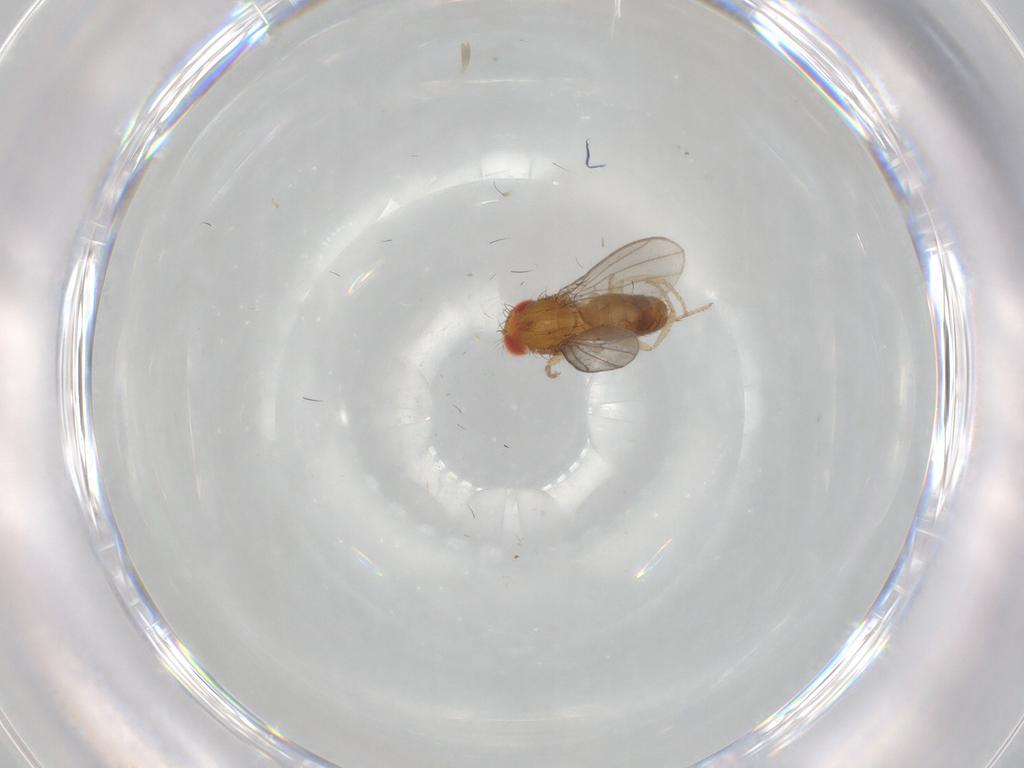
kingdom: Animalia
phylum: Arthropoda
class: Insecta
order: Diptera
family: Drosophilidae
